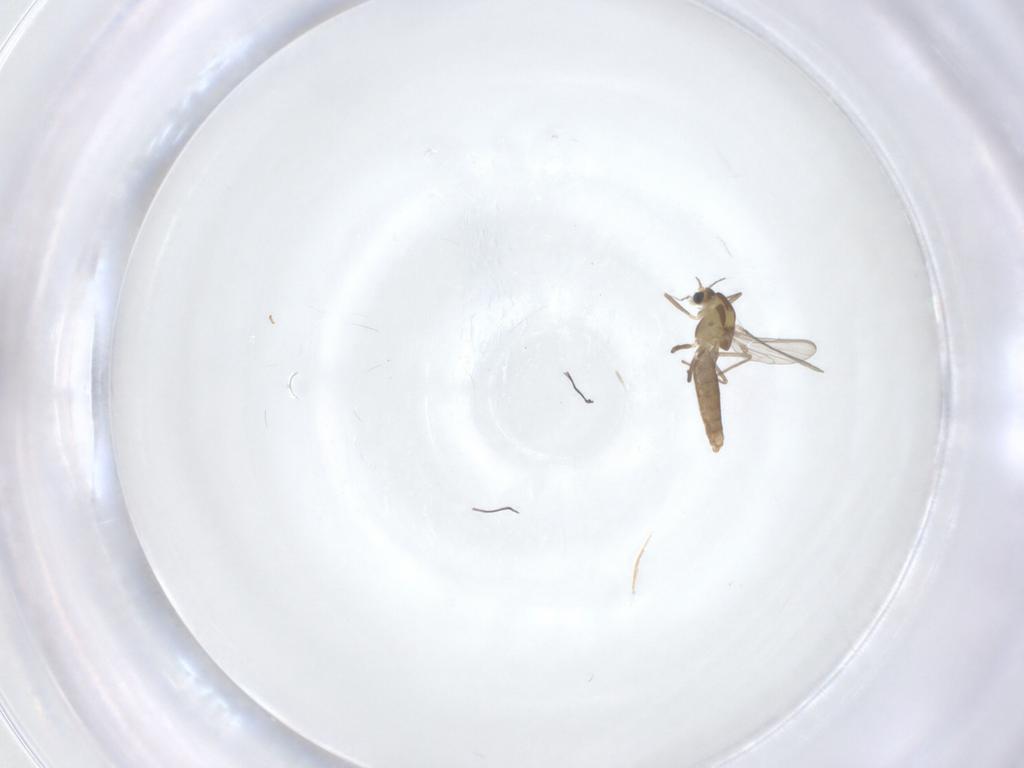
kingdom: Animalia
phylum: Arthropoda
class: Insecta
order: Diptera
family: Chironomidae
